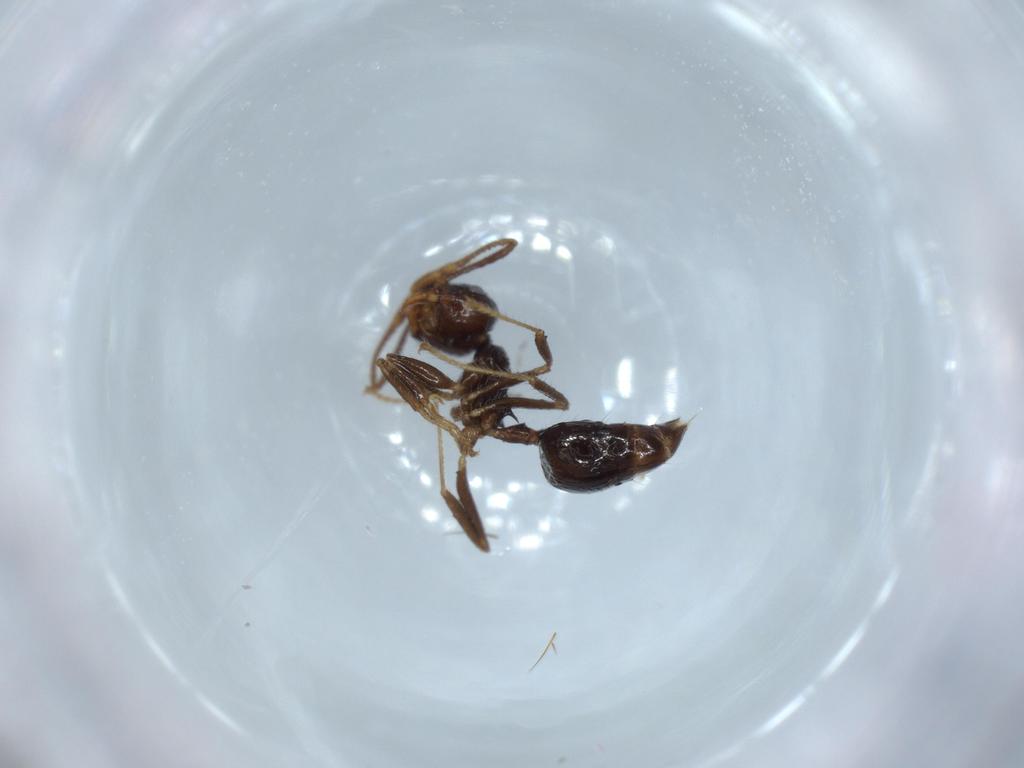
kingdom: Animalia
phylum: Arthropoda
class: Insecta
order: Hymenoptera
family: Formicidae
